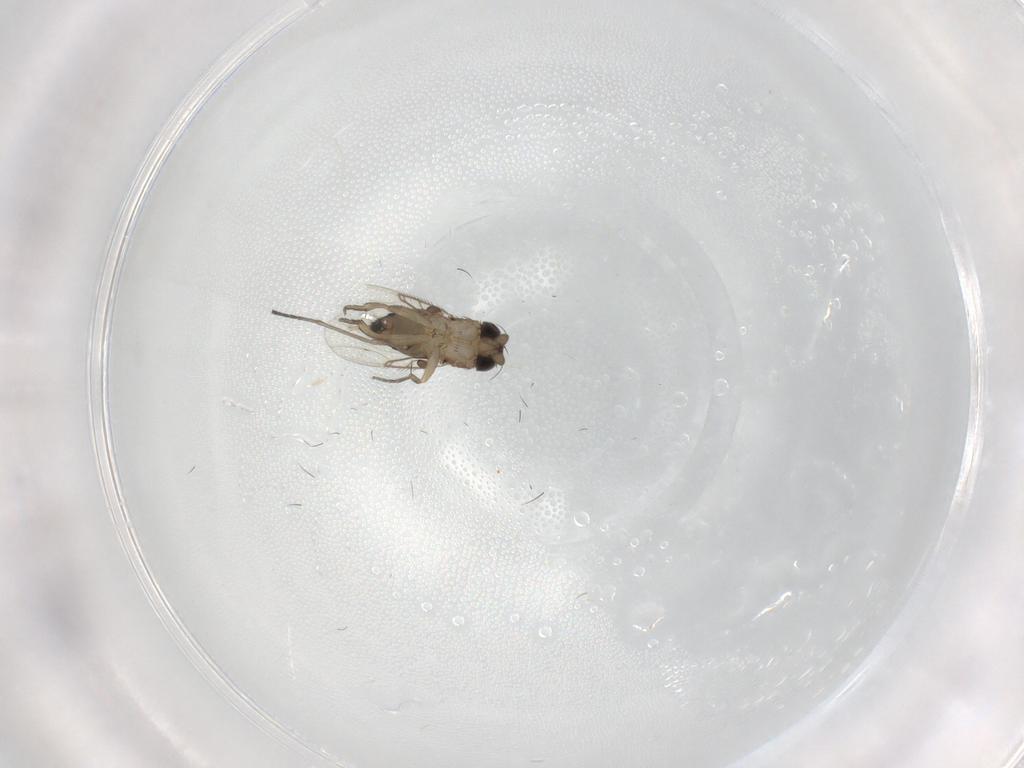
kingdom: Animalia
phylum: Arthropoda
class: Insecta
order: Diptera
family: Phoridae
